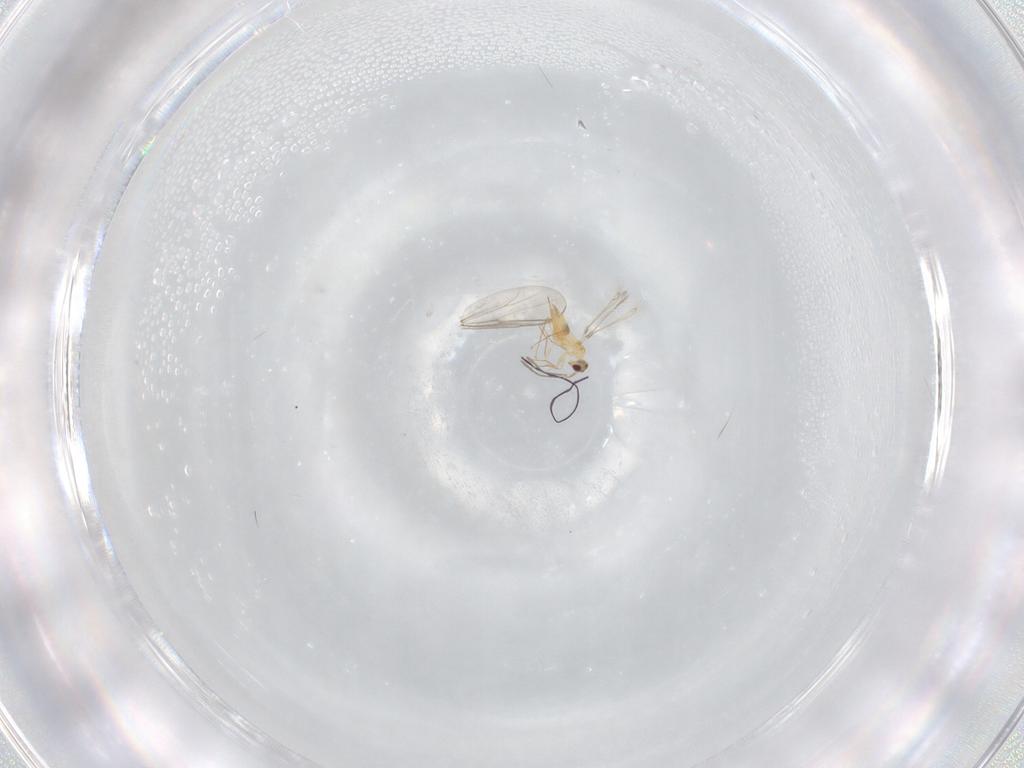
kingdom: Animalia
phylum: Arthropoda
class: Insecta
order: Hymenoptera
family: Mymaridae
